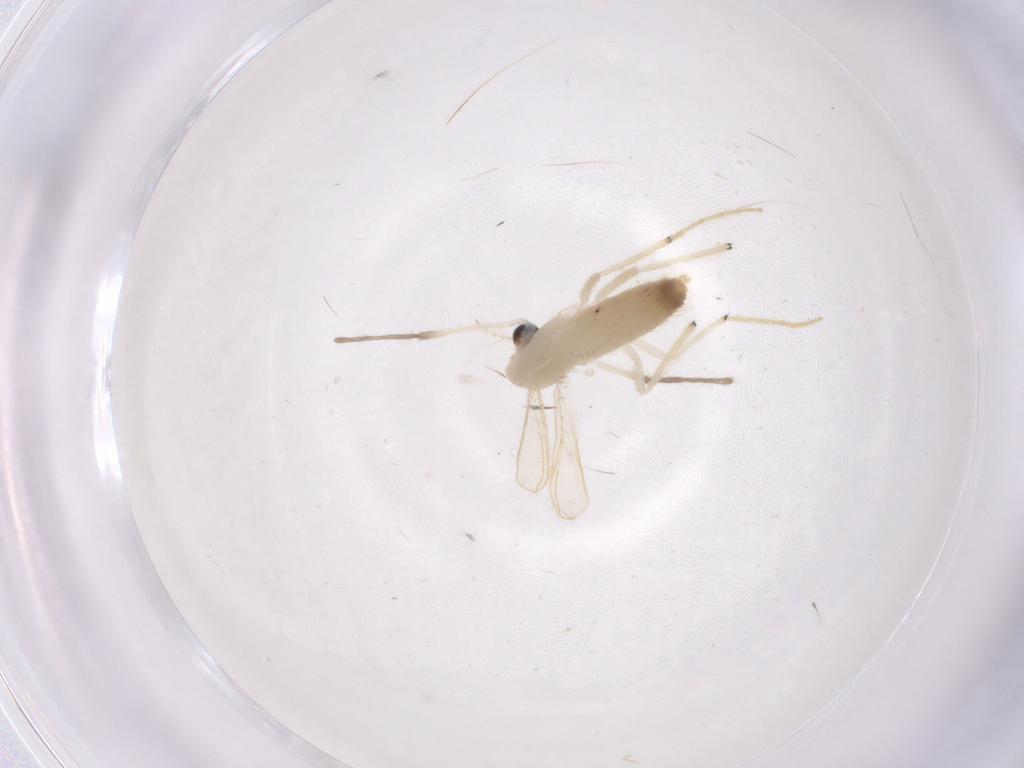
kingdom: Animalia
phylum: Arthropoda
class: Insecta
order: Diptera
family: Chironomidae
